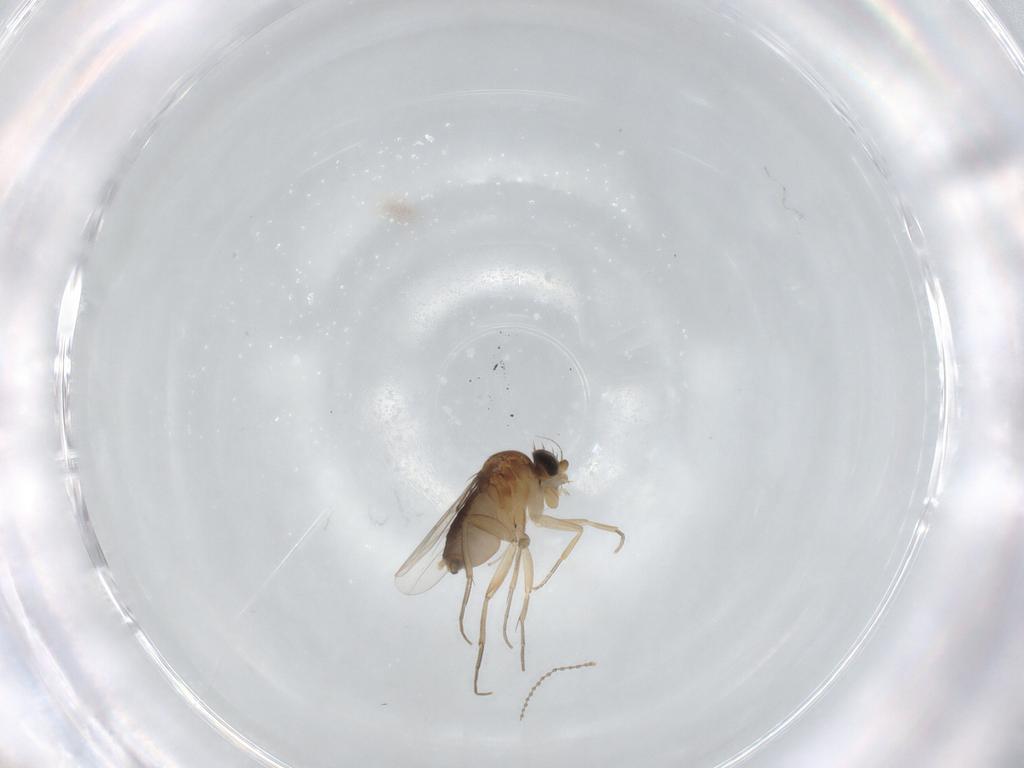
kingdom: Animalia
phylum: Arthropoda
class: Insecta
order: Diptera
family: Phoridae
